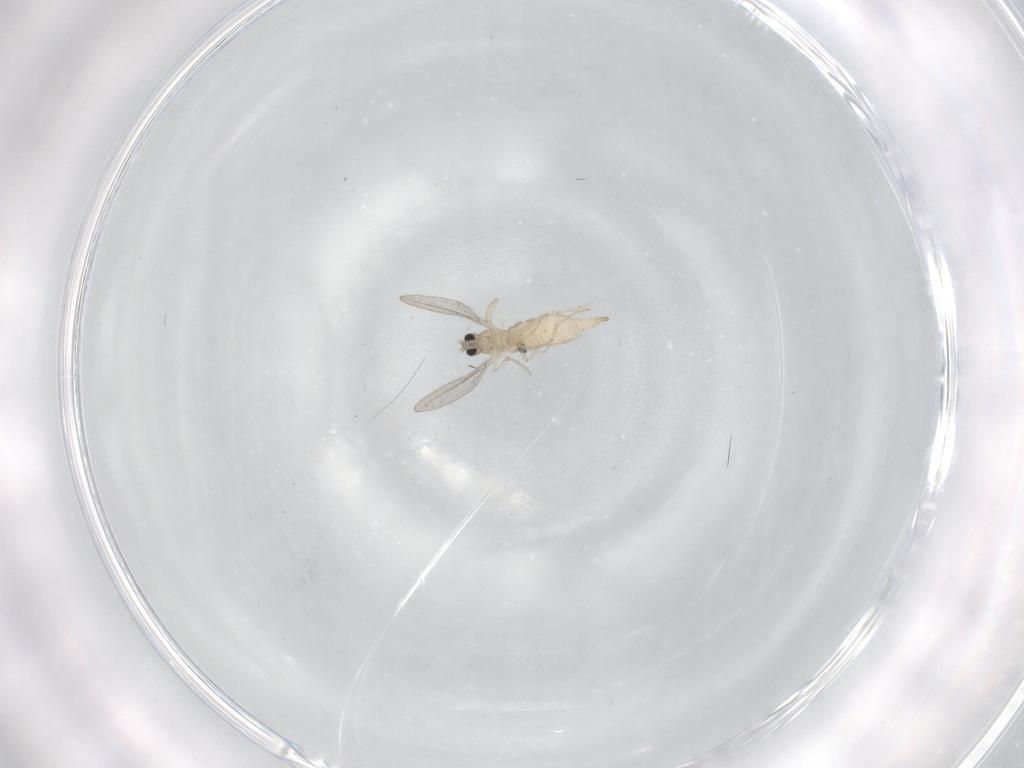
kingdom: Animalia
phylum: Arthropoda
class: Insecta
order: Diptera
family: Cecidomyiidae
